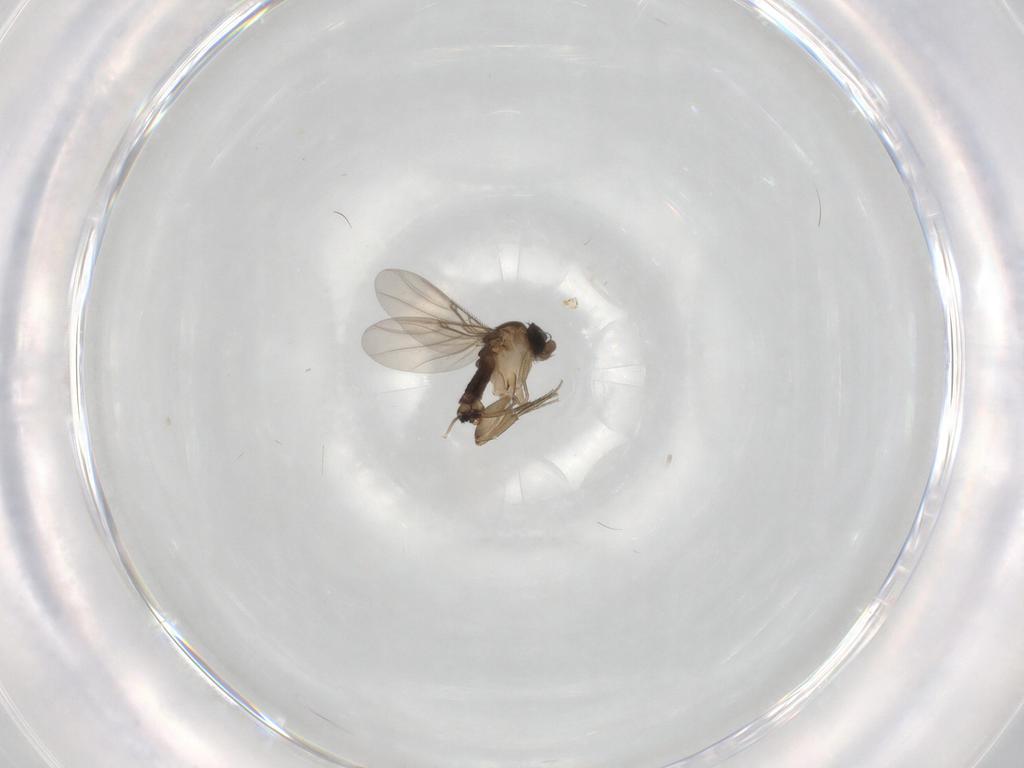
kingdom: Animalia
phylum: Arthropoda
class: Insecta
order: Diptera
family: Phoridae
